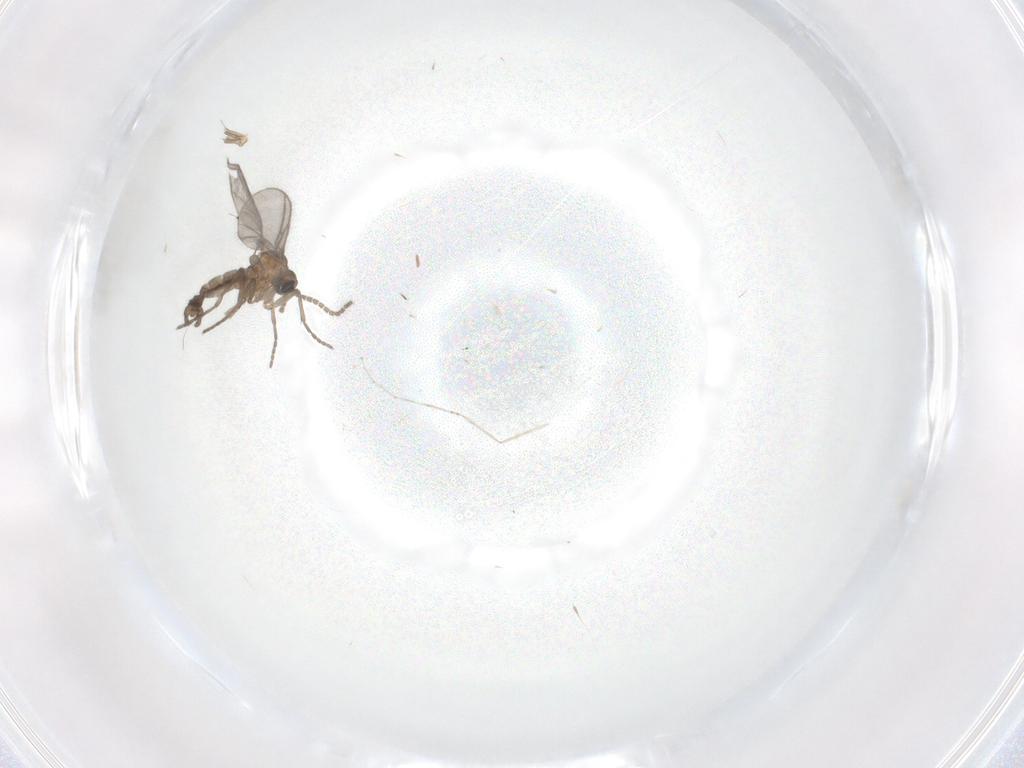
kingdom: Animalia
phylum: Arthropoda
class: Insecta
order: Diptera
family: Sciaridae
